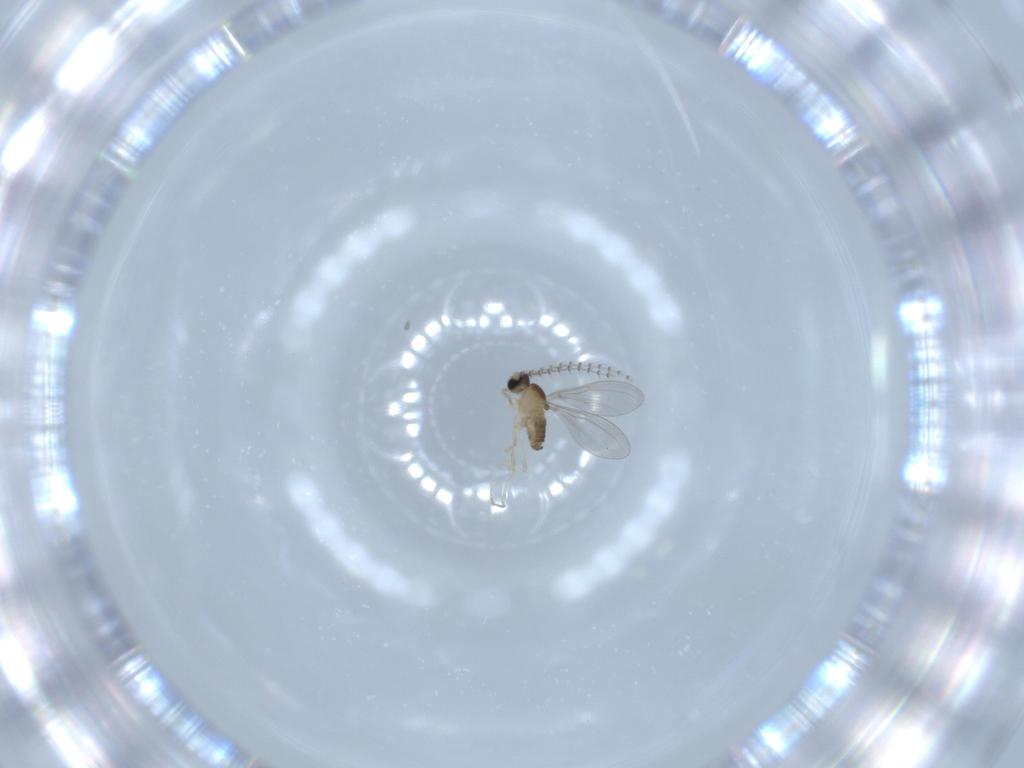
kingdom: Animalia
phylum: Arthropoda
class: Insecta
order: Diptera
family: Cecidomyiidae
